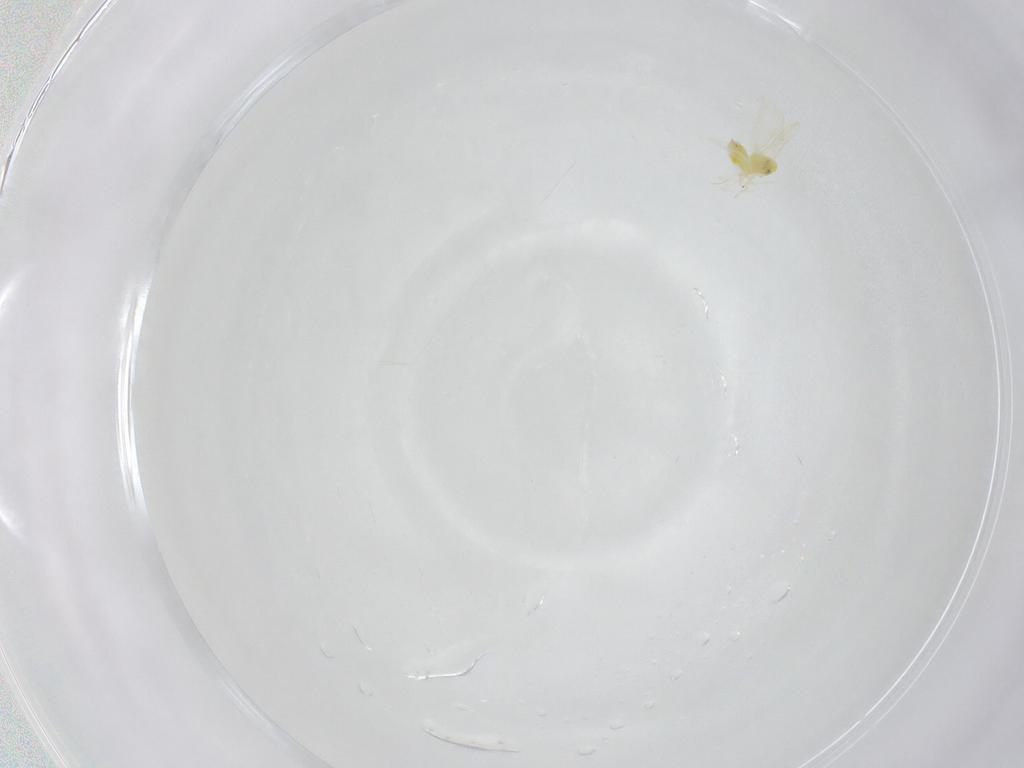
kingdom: Animalia
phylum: Arthropoda
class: Insecta
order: Hemiptera
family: Aleyrodidae
